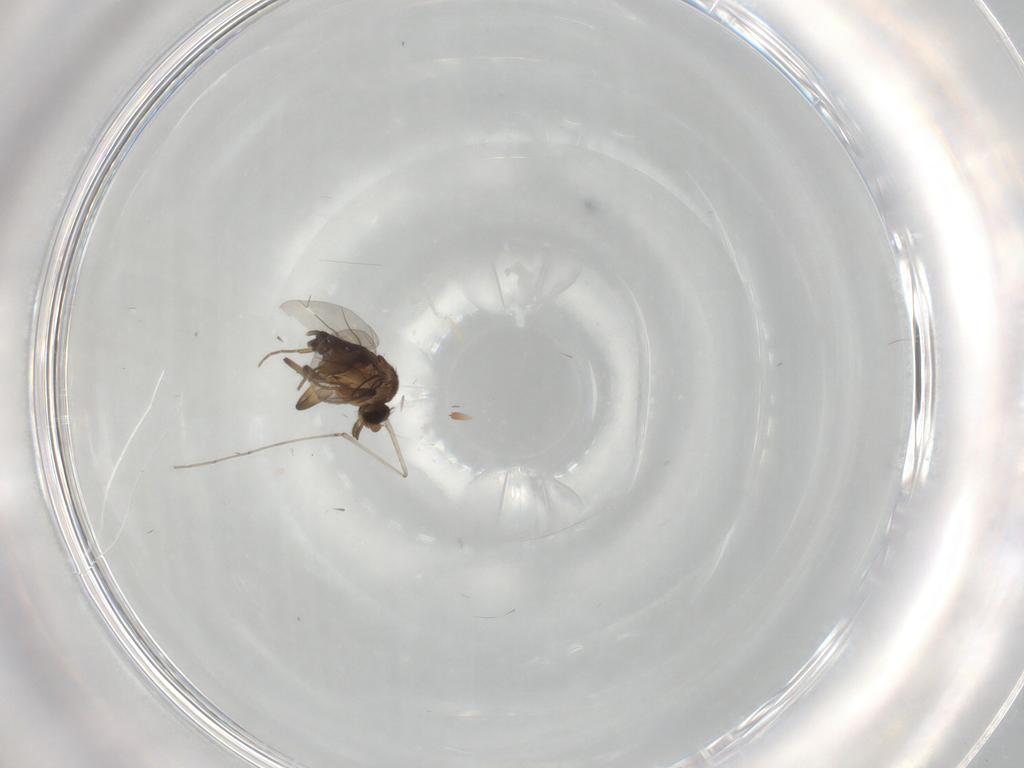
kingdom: Animalia
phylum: Arthropoda
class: Insecta
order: Diptera
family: Phoridae
